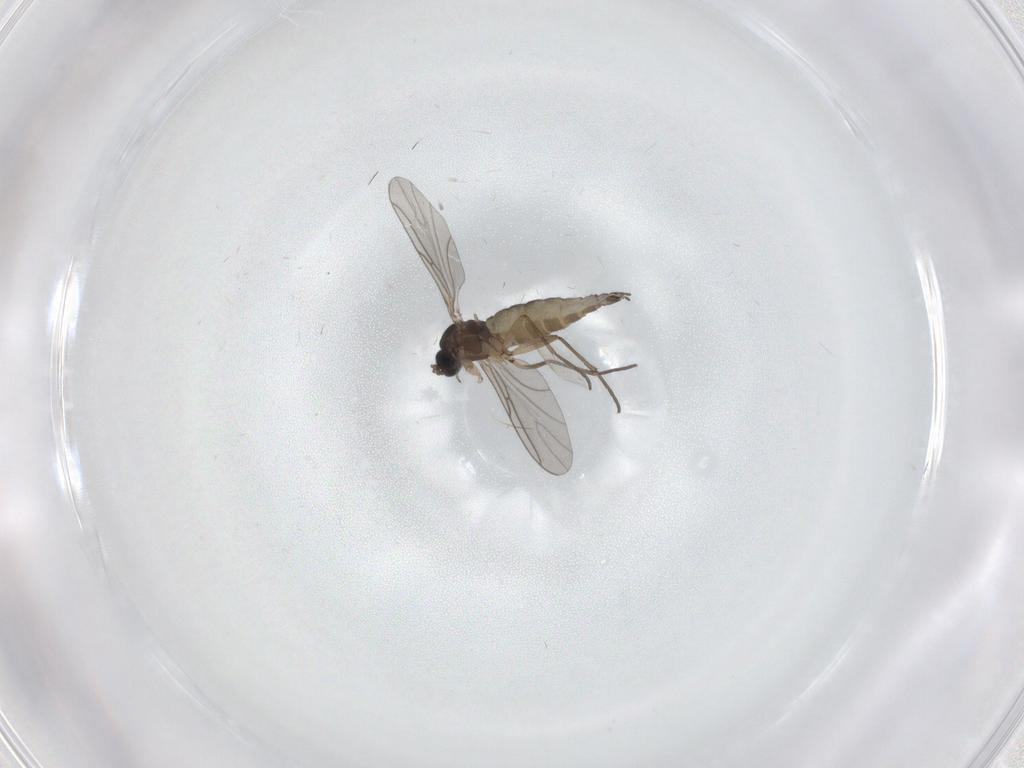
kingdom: Animalia
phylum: Arthropoda
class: Insecta
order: Diptera
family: Sciaridae
